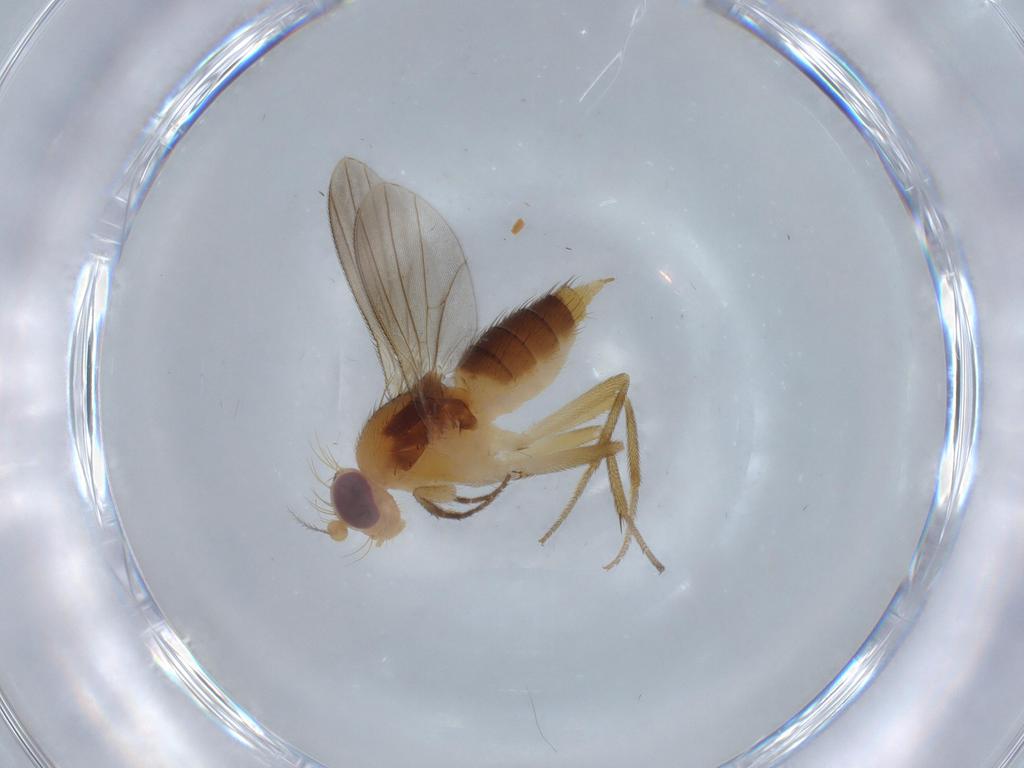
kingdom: Animalia
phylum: Arthropoda
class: Insecta
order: Diptera
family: Agromyzidae
